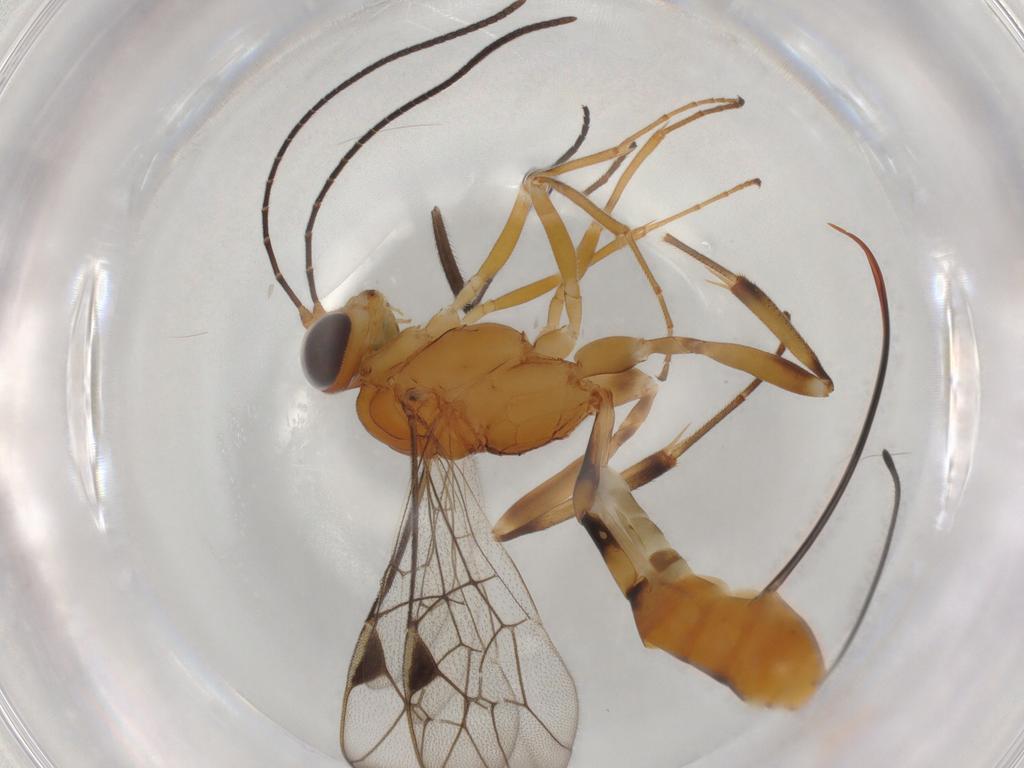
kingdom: Animalia
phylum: Arthropoda
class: Insecta
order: Hymenoptera
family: Ichneumonidae
